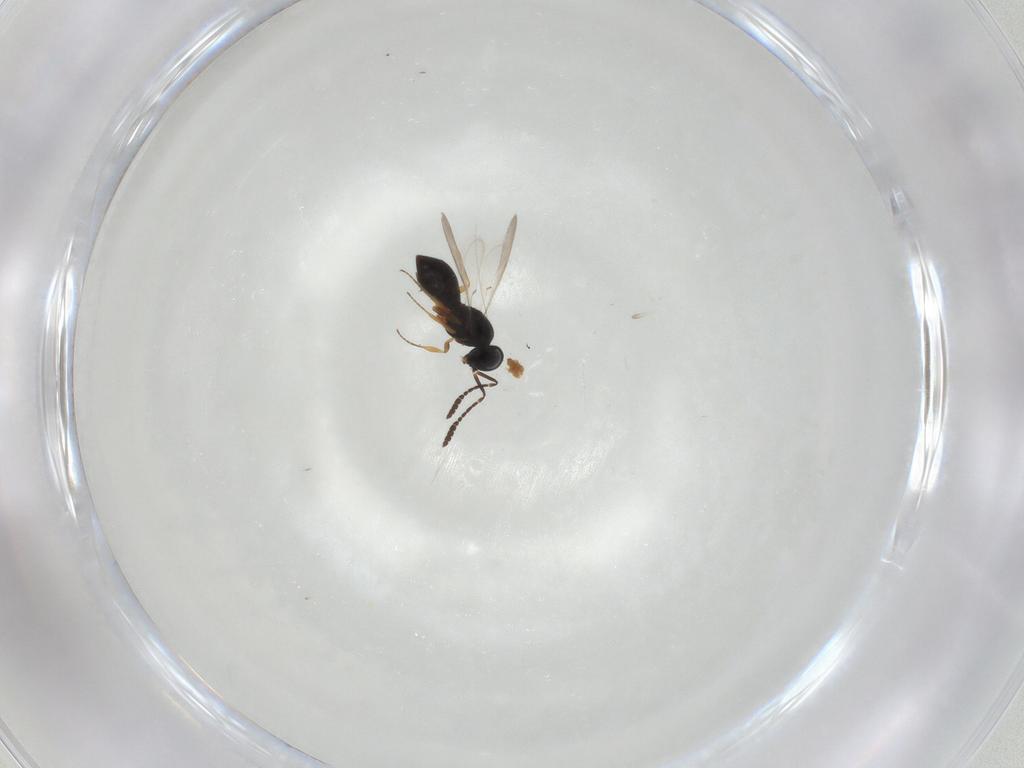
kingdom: Animalia
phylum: Arthropoda
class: Insecta
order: Hymenoptera
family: Scelionidae
